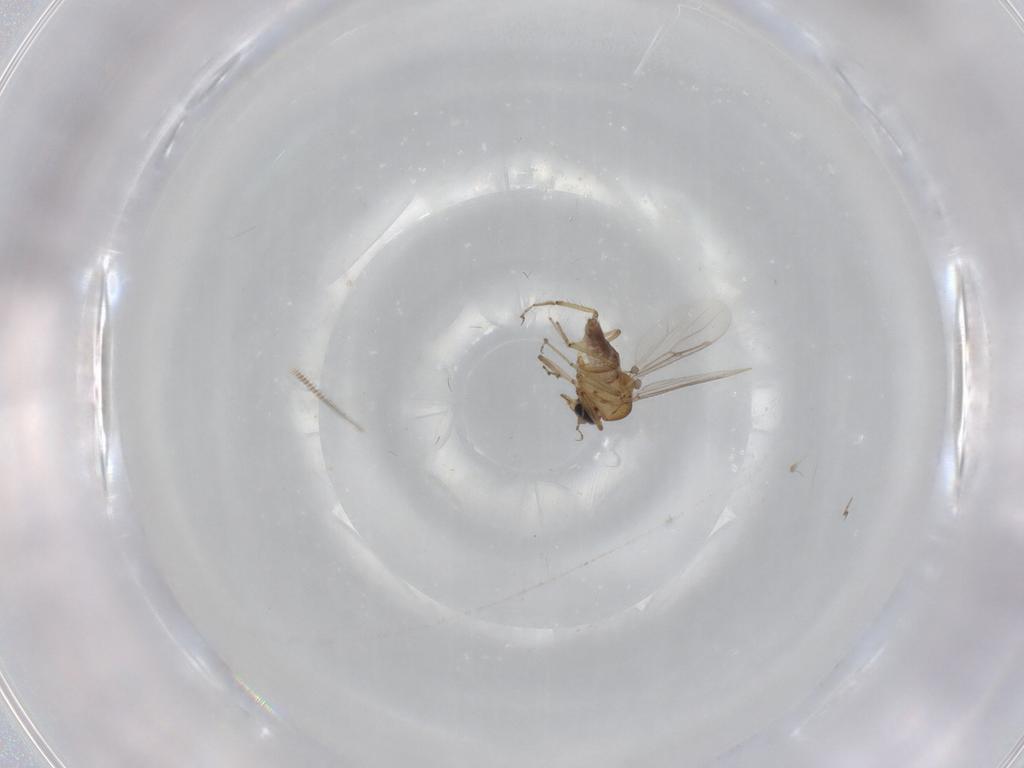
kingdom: Animalia
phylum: Arthropoda
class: Insecta
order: Diptera
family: Chironomidae
